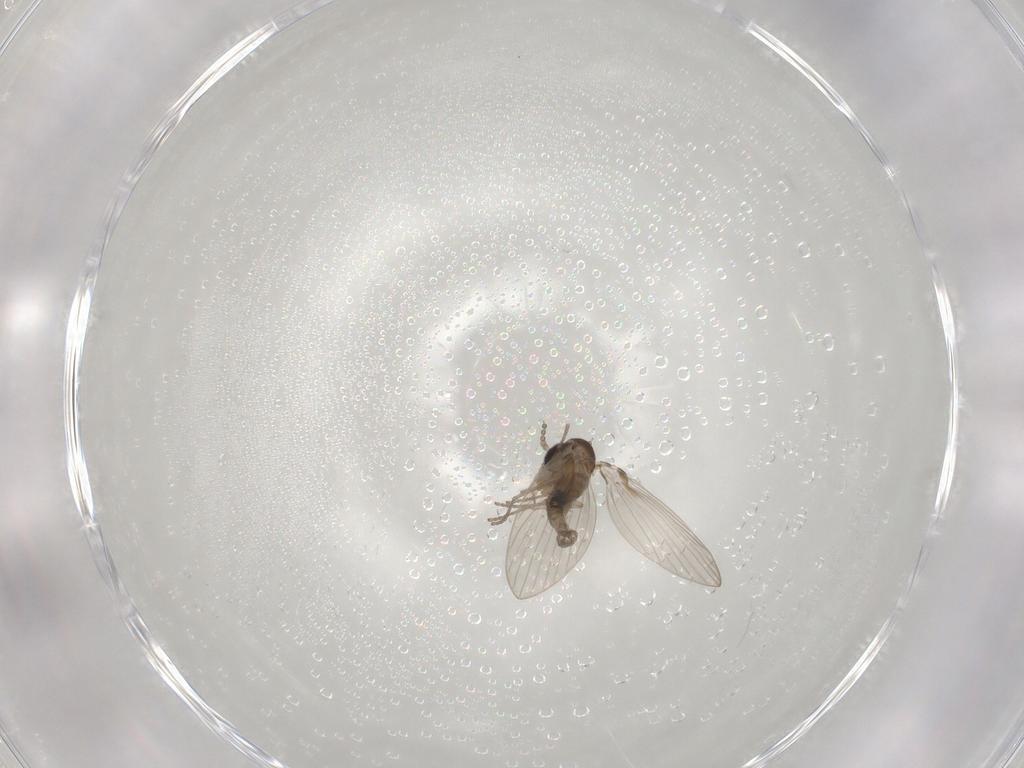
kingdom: Animalia
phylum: Arthropoda
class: Insecta
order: Diptera
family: Psychodidae
